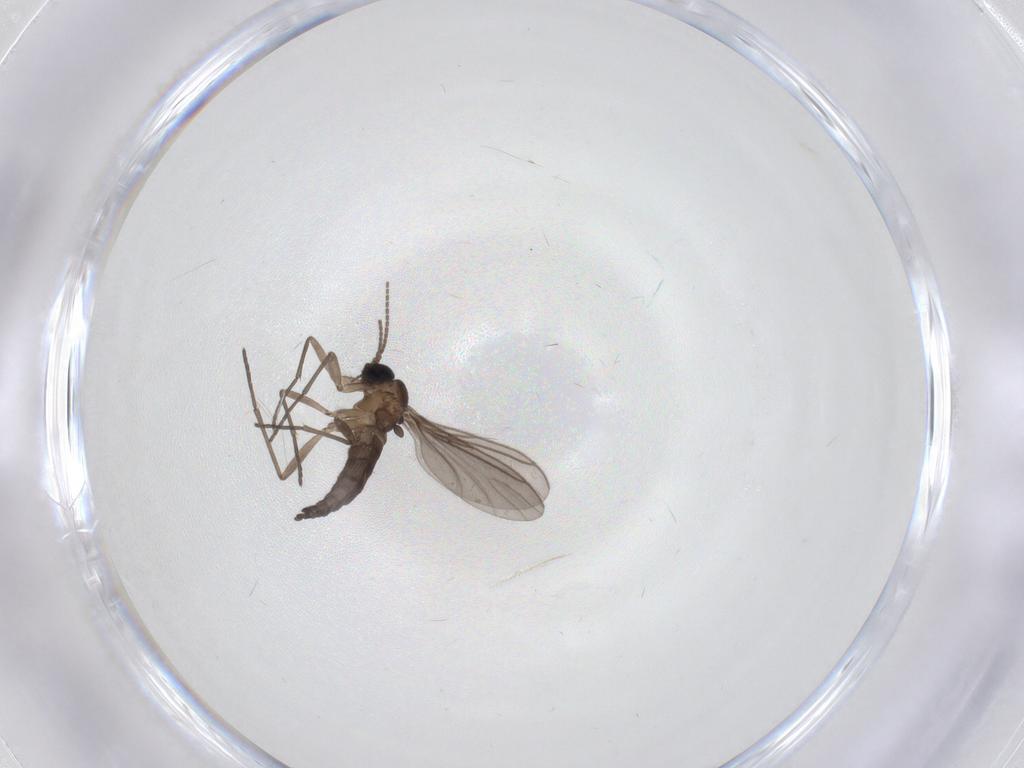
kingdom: Animalia
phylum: Arthropoda
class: Insecta
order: Diptera
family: Cecidomyiidae
